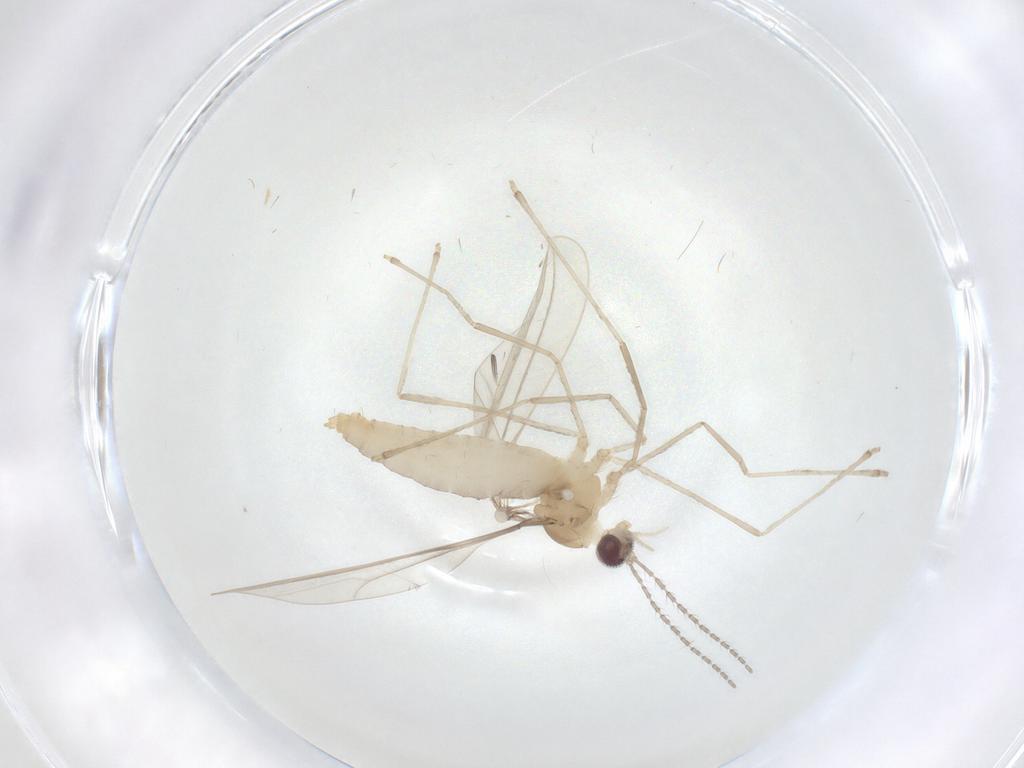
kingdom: Animalia
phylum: Arthropoda
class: Insecta
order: Diptera
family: Cecidomyiidae
